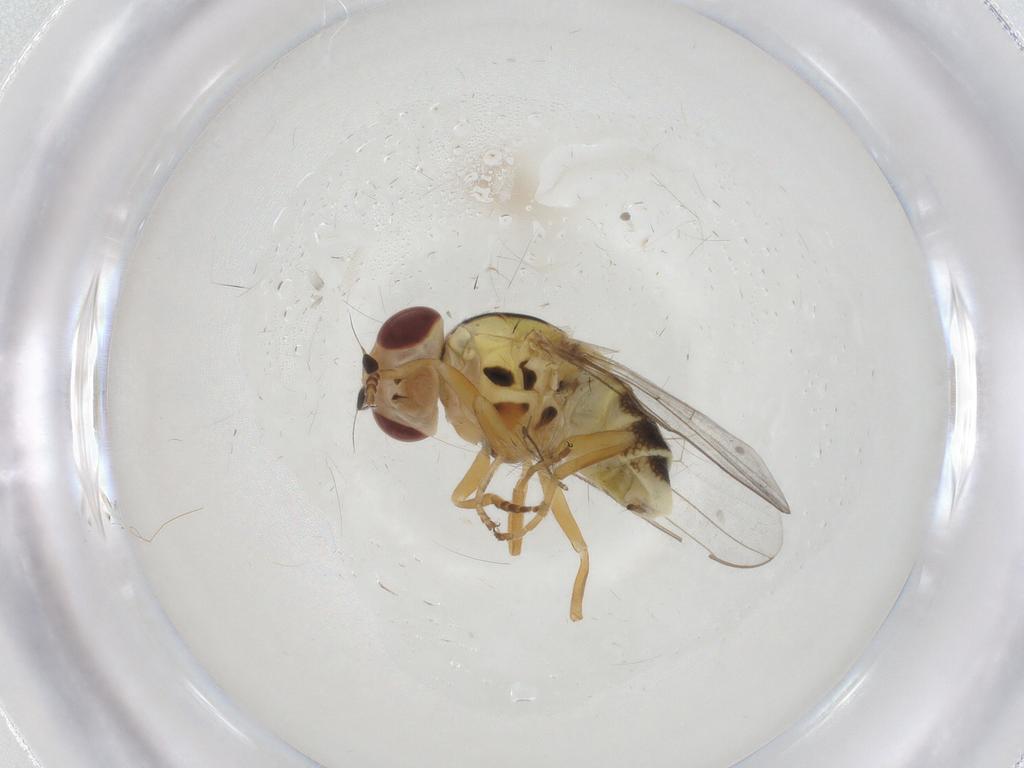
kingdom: Animalia
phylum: Arthropoda
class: Insecta
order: Diptera
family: Chloropidae
